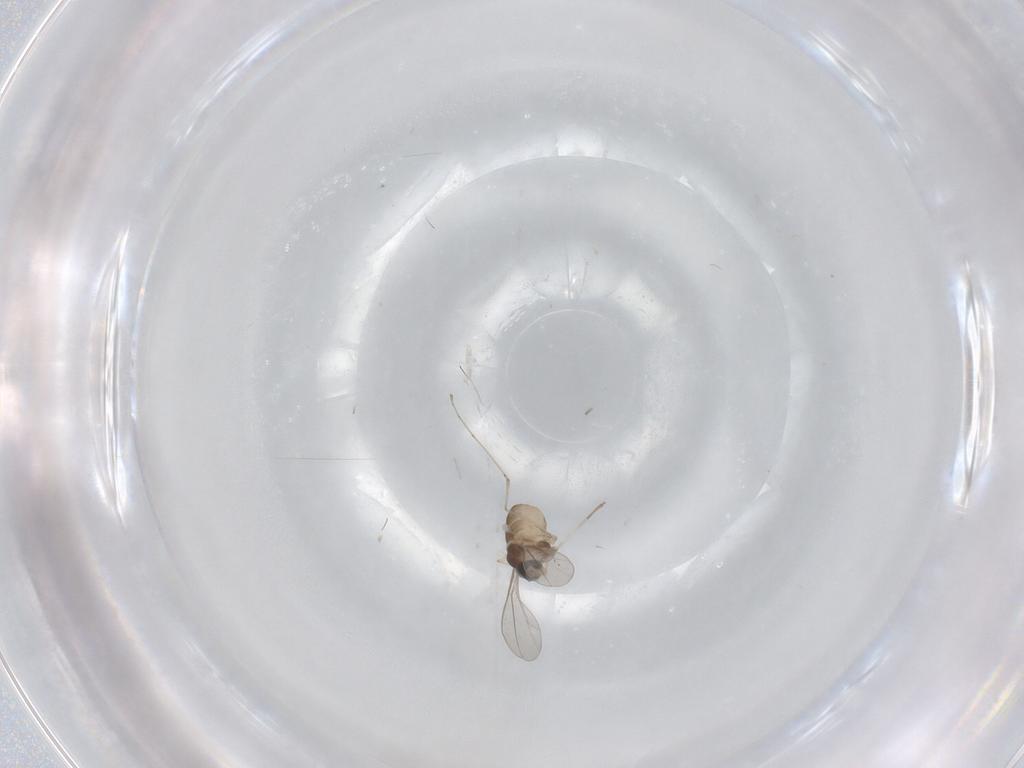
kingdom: Animalia
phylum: Arthropoda
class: Insecta
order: Diptera
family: Cecidomyiidae
